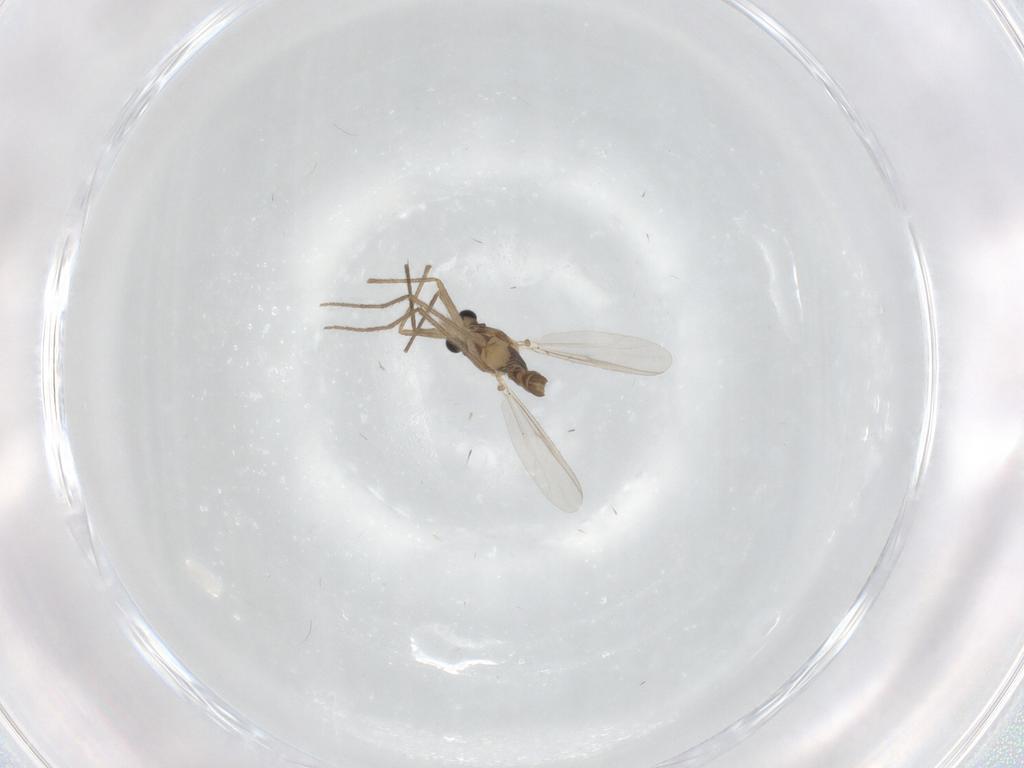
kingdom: Animalia
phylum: Arthropoda
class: Insecta
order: Diptera
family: Chironomidae
